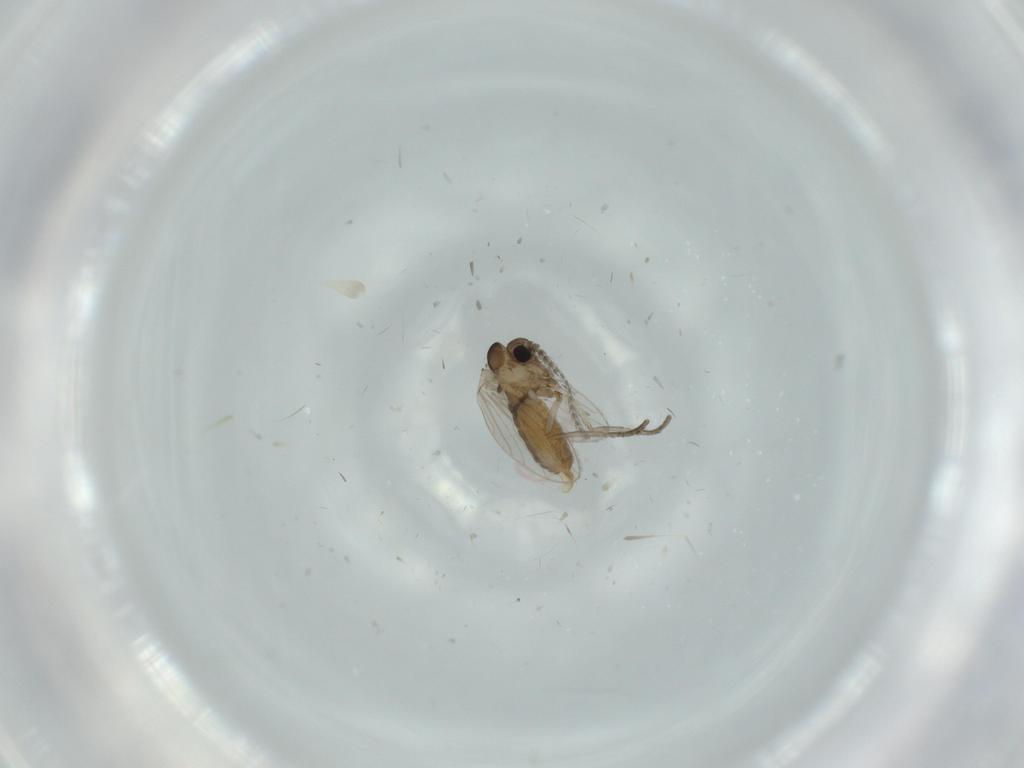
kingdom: Animalia
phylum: Arthropoda
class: Insecta
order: Diptera
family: Psychodidae
